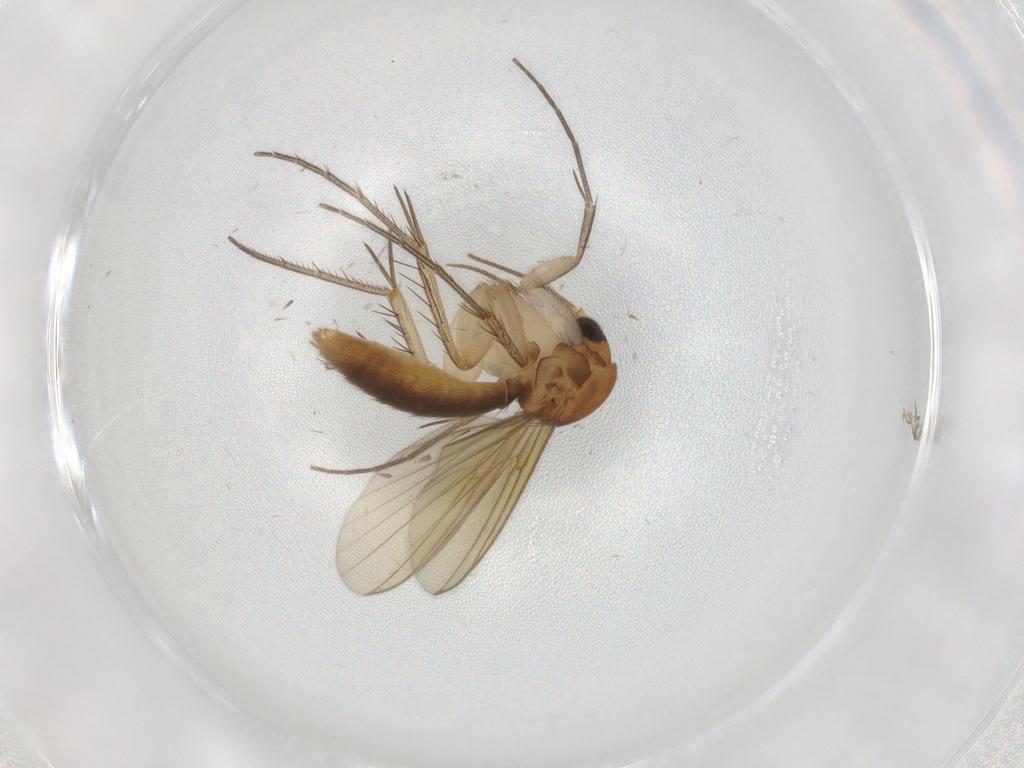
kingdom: Animalia
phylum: Arthropoda
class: Insecta
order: Diptera
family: Mycetophilidae
